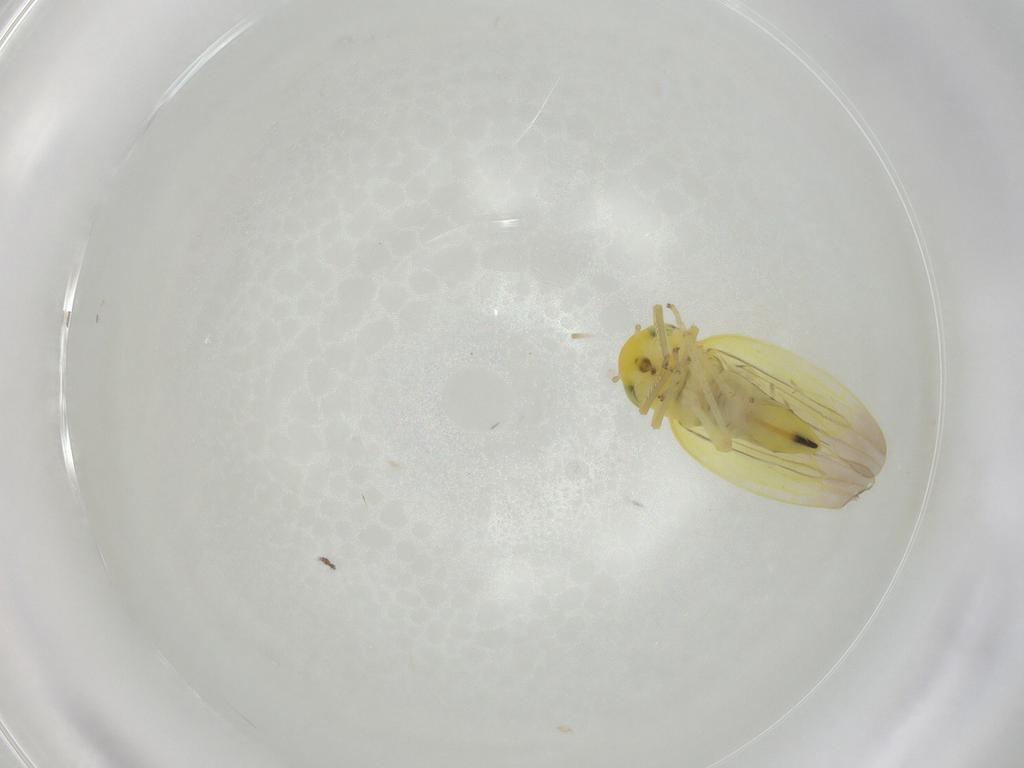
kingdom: Animalia
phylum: Arthropoda
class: Insecta
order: Hemiptera
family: Cicadellidae
